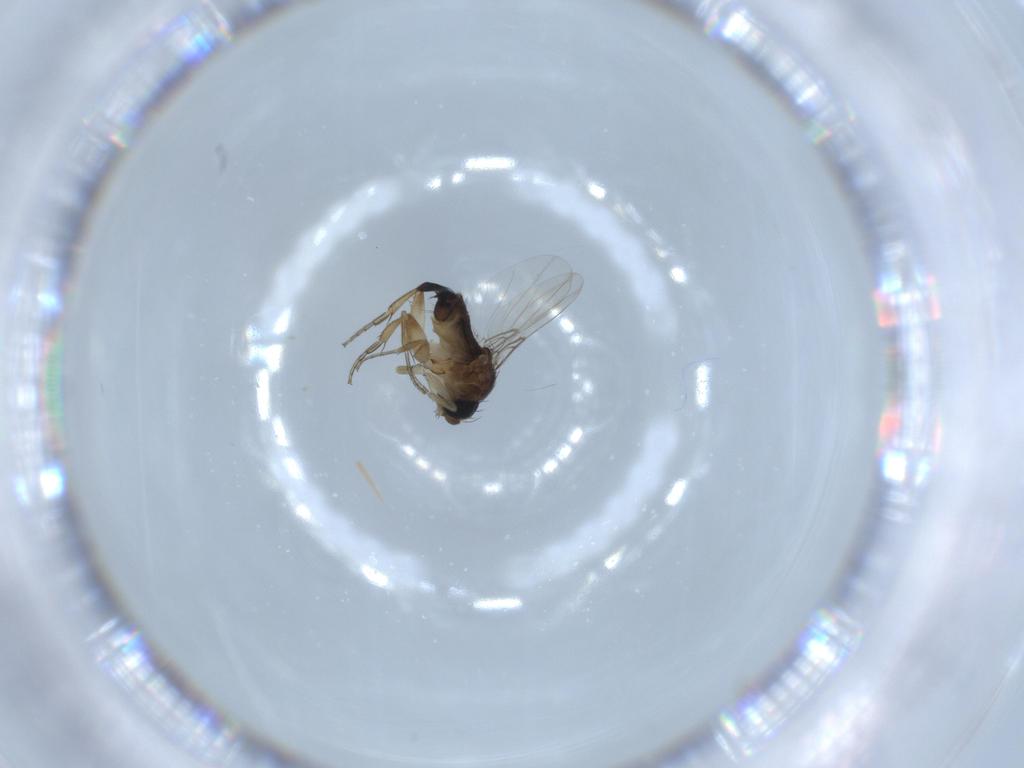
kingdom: Animalia
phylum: Arthropoda
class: Insecta
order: Diptera
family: Phoridae
